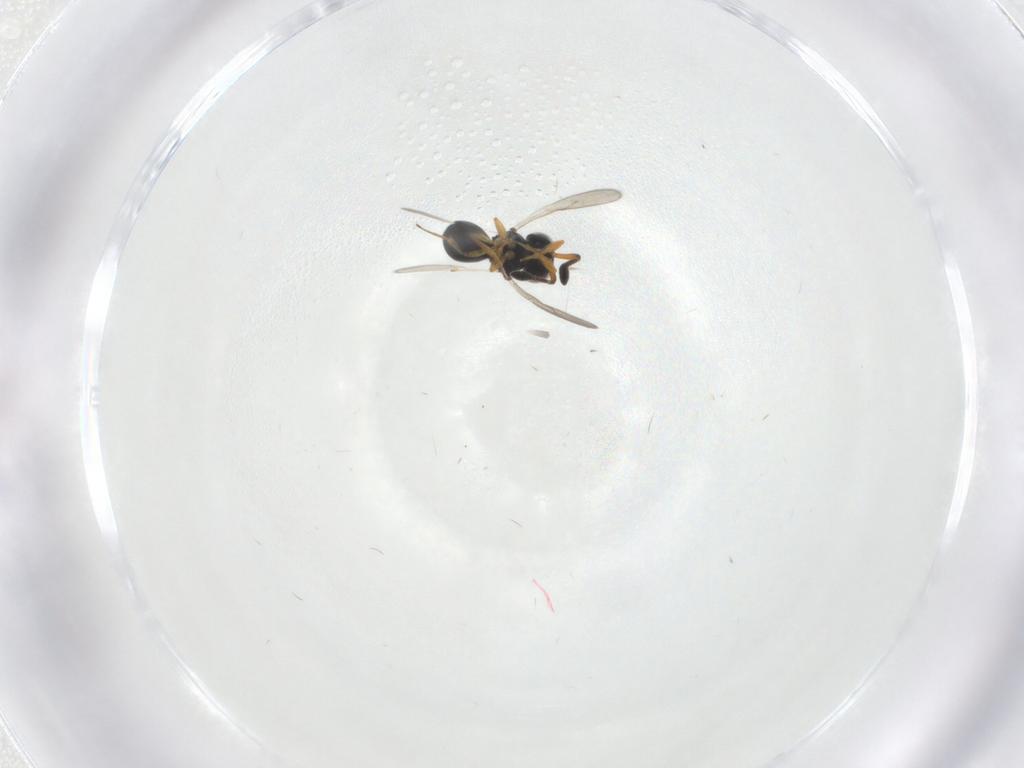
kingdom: Animalia
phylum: Arthropoda
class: Insecta
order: Hymenoptera
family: Scelionidae
